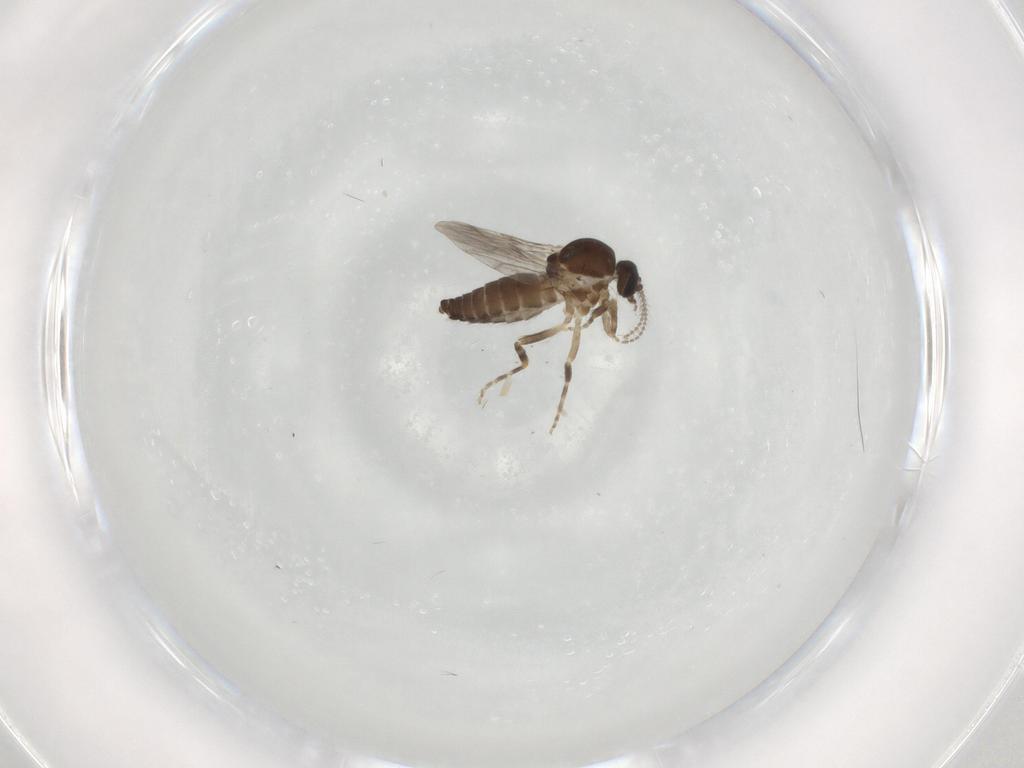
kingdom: Animalia
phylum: Arthropoda
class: Insecta
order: Diptera
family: Ceratopogonidae
